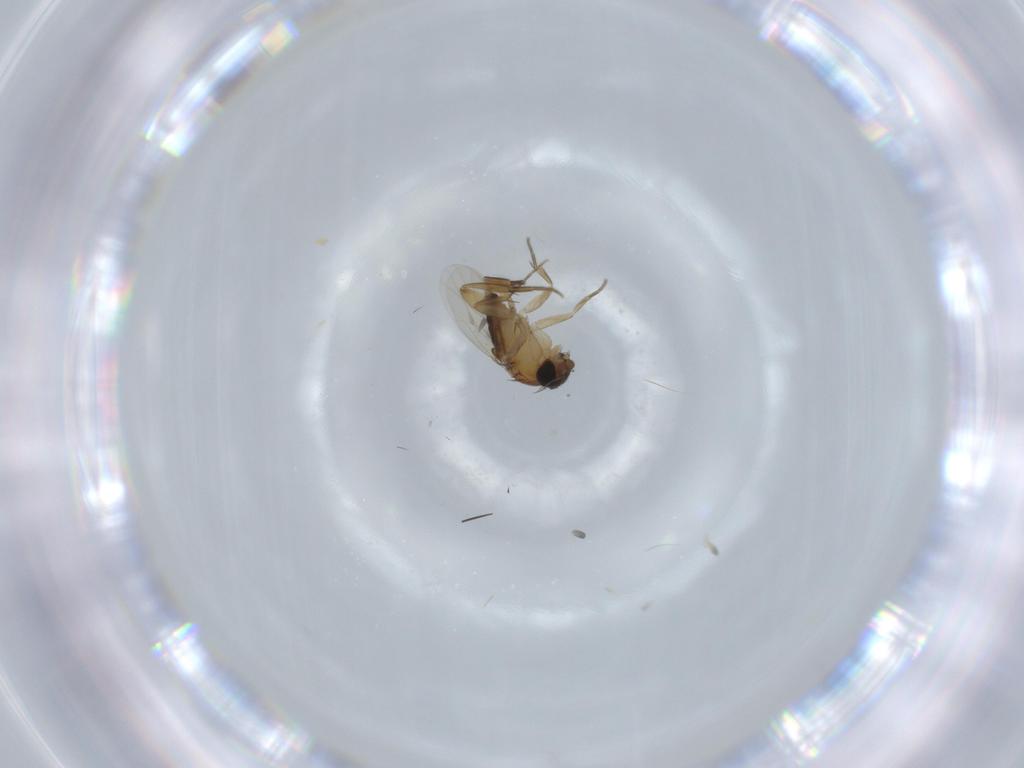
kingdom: Animalia
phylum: Arthropoda
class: Insecta
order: Diptera
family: Phoridae
